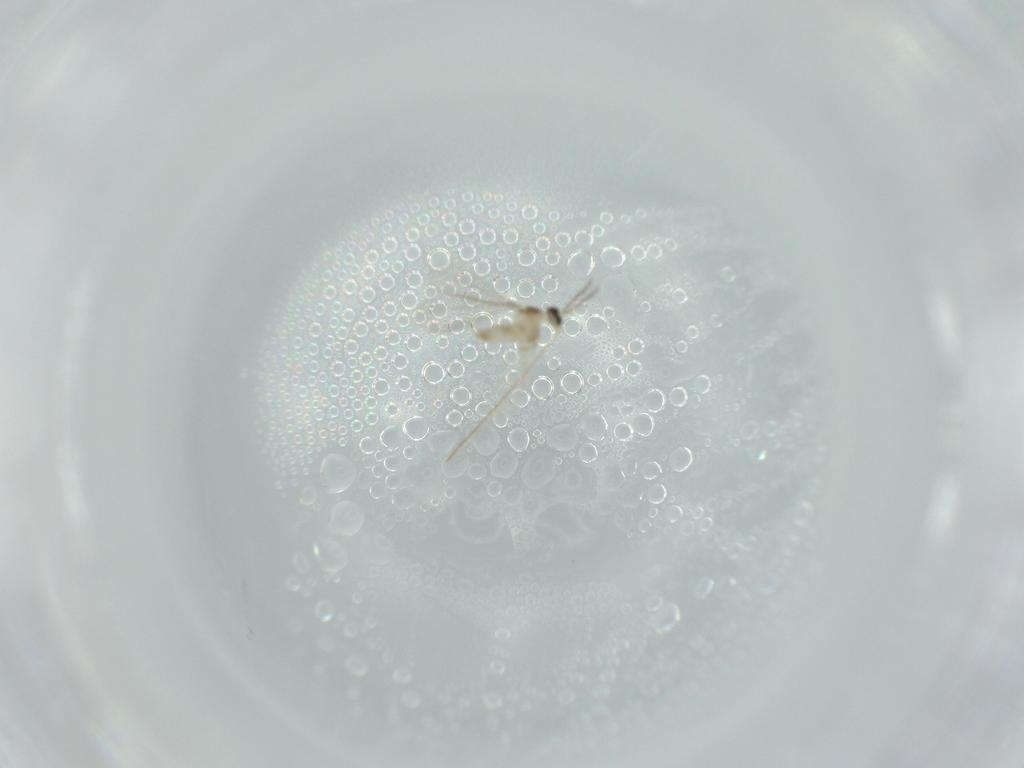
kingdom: Animalia
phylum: Arthropoda
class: Insecta
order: Diptera
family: Cecidomyiidae
